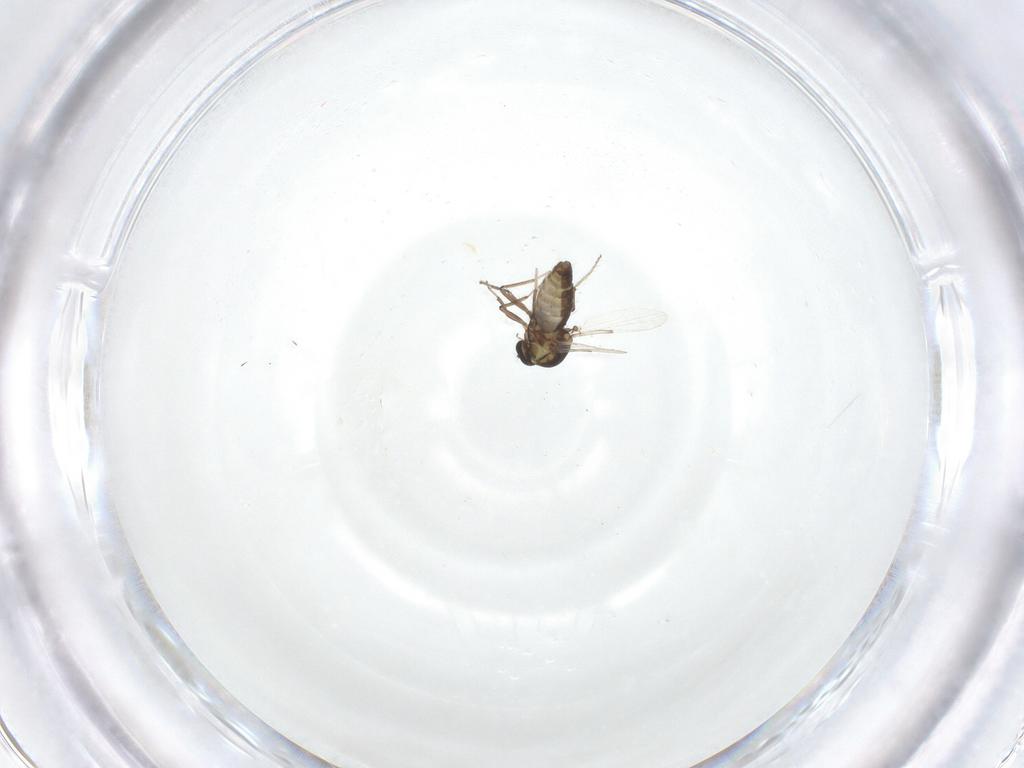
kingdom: Animalia
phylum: Arthropoda
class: Insecta
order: Diptera
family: Ceratopogonidae
